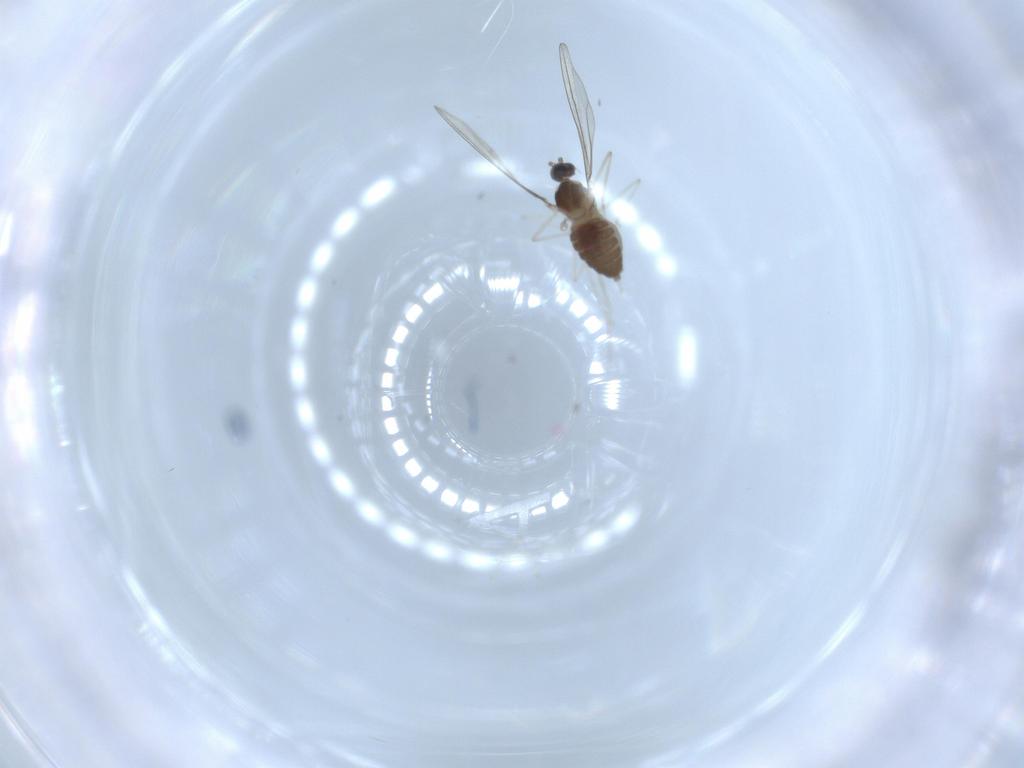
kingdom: Animalia
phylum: Arthropoda
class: Insecta
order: Diptera
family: Cecidomyiidae
